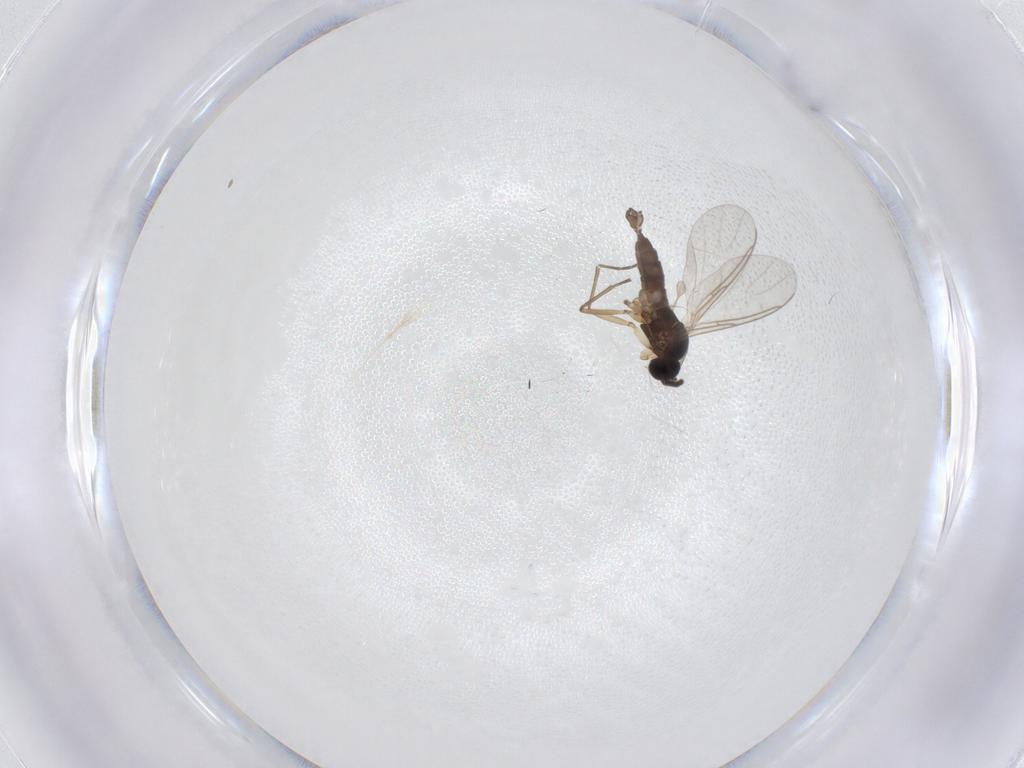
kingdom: Animalia
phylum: Arthropoda
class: Insecta
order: Diptera
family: Sciaridae
